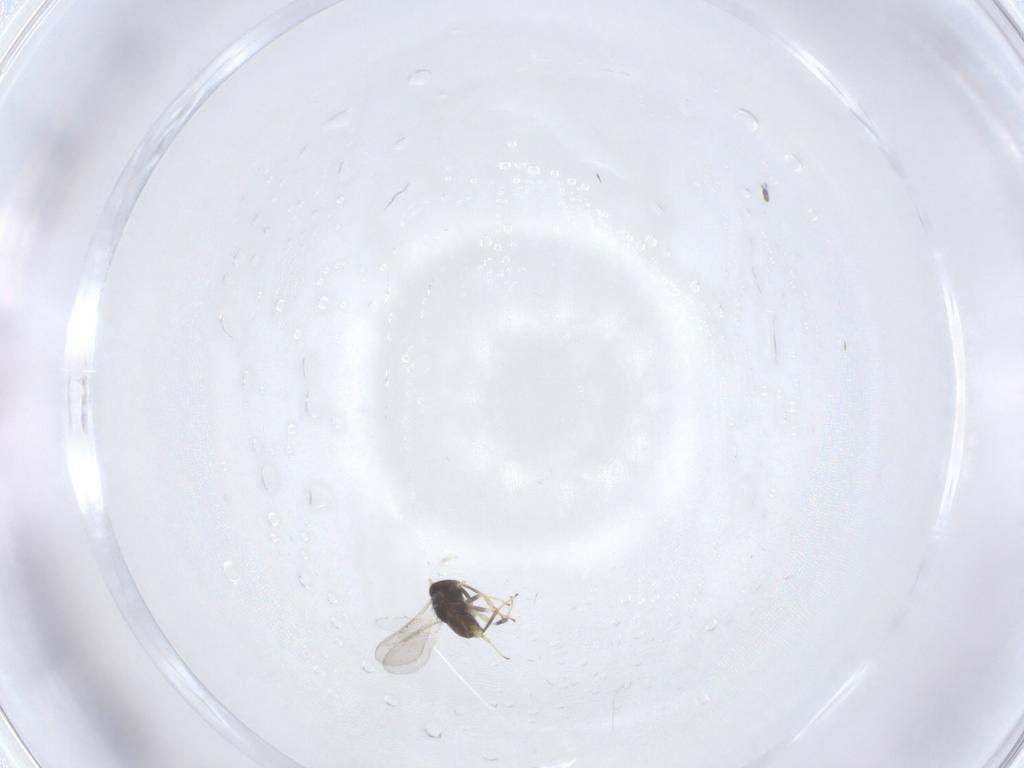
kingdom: Animalia
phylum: Arthropoda
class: Insecta
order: Hymenoptera
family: Aphelinidae
